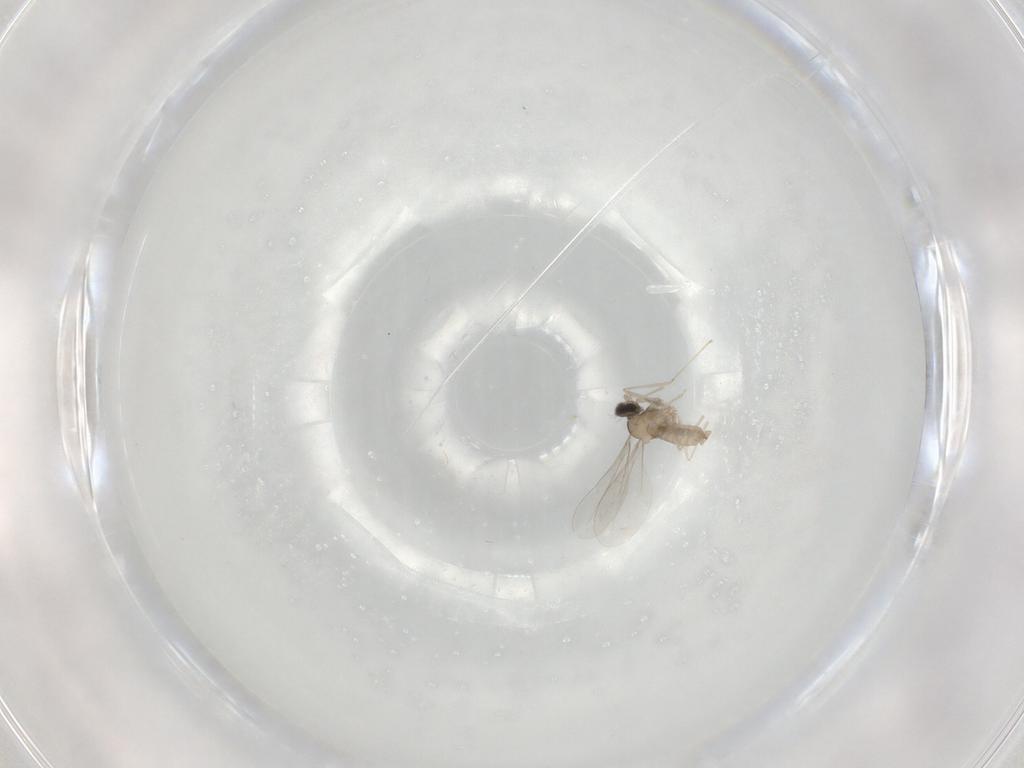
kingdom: Animalia
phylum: Arthropoda
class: Insecta
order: Diptera
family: Cecidomyiidae
